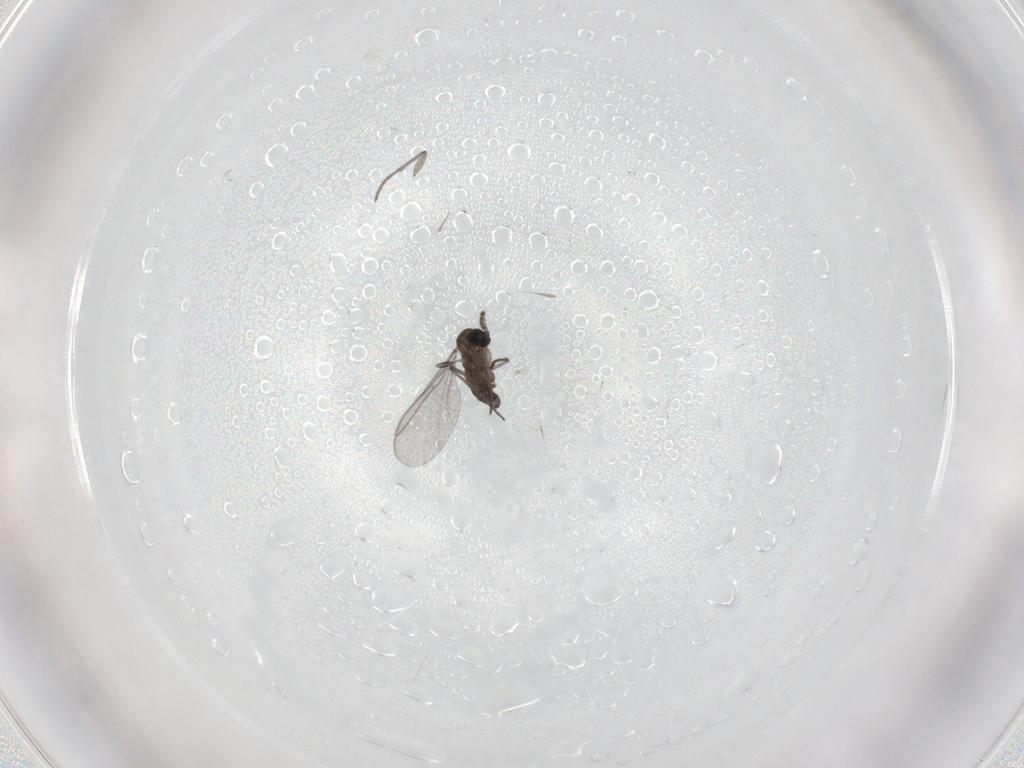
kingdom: Animalia
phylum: Arthropoda
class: Insecta
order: Diptera
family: Sciaridae
